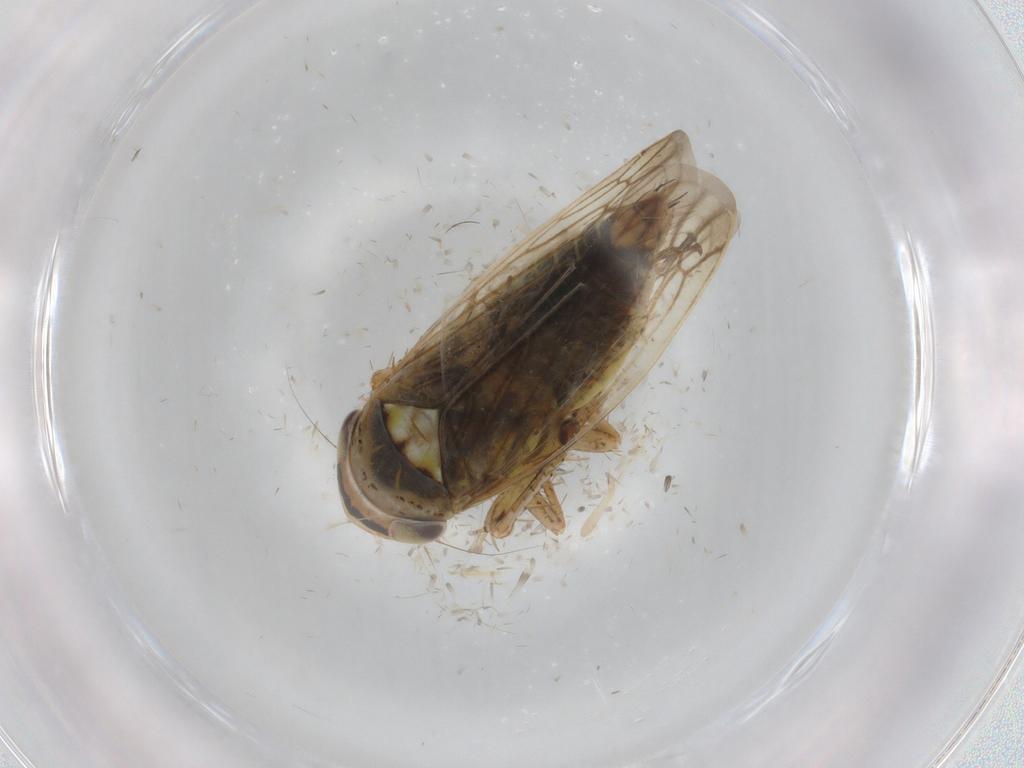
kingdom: Animalia
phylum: Arthropoda
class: Insecta
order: Hemiptera
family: Cicadellidae
